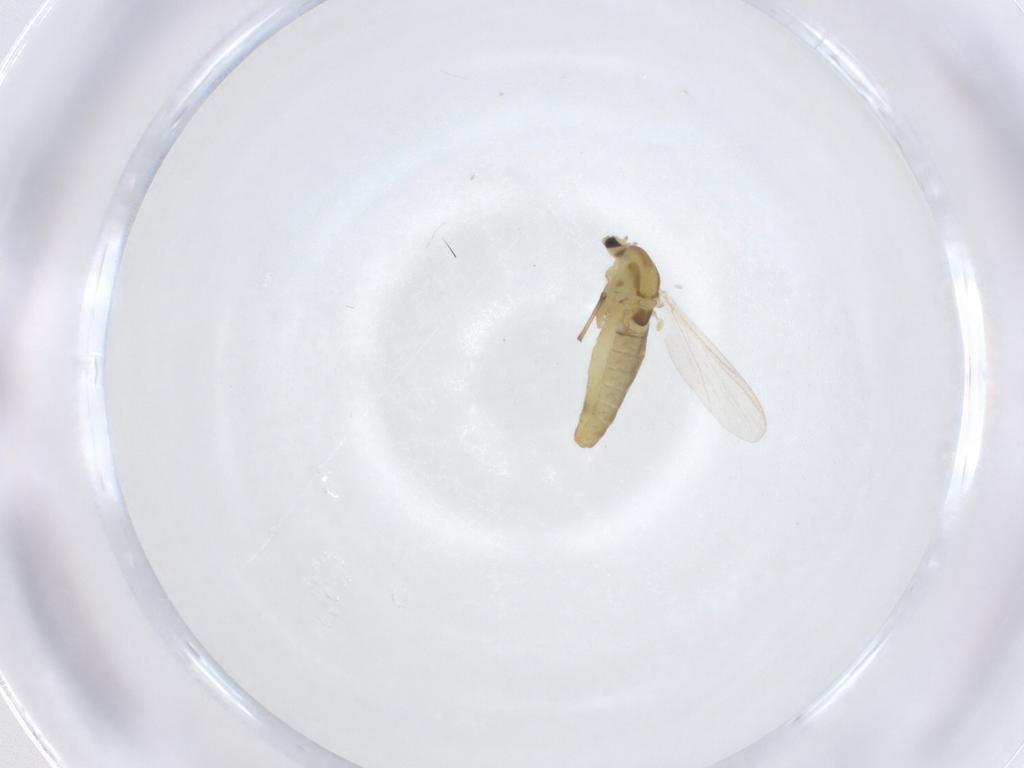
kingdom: Animalia
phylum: Arthropoda
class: Insecta
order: Diptera
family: Chironomidae
